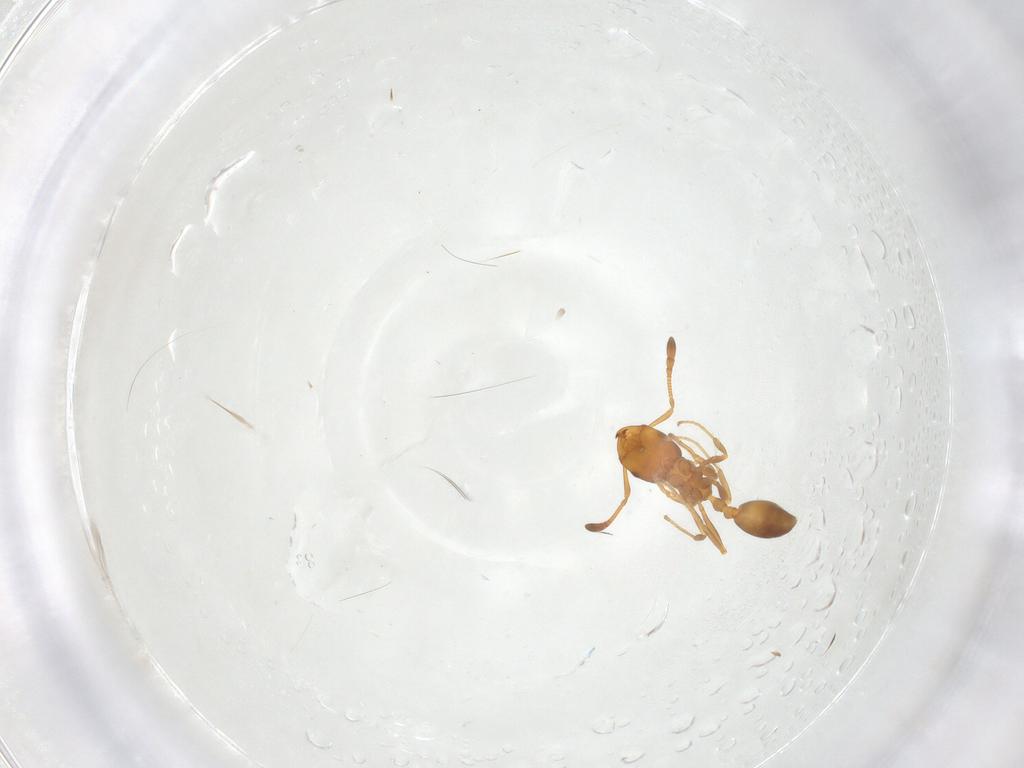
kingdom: Animalia
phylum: Arthropoda
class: Insecta
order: Hymenoptera
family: Formicidae
